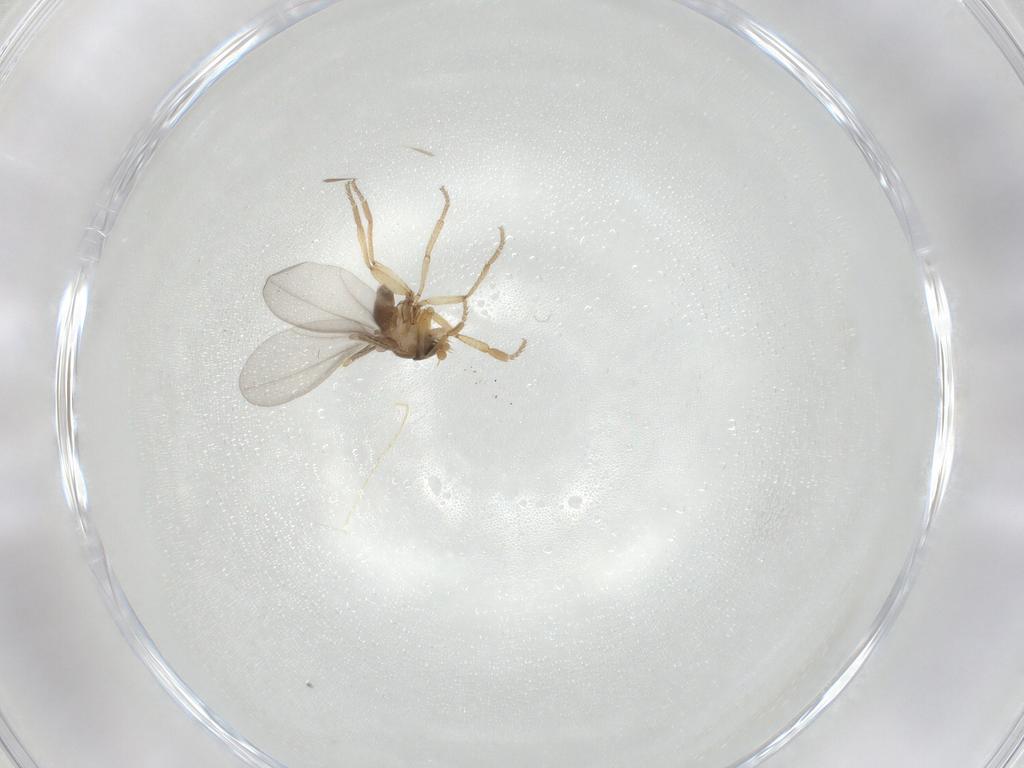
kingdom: Animalia
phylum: Arthropoda
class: Insecta
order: Diptera
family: Phoridae
